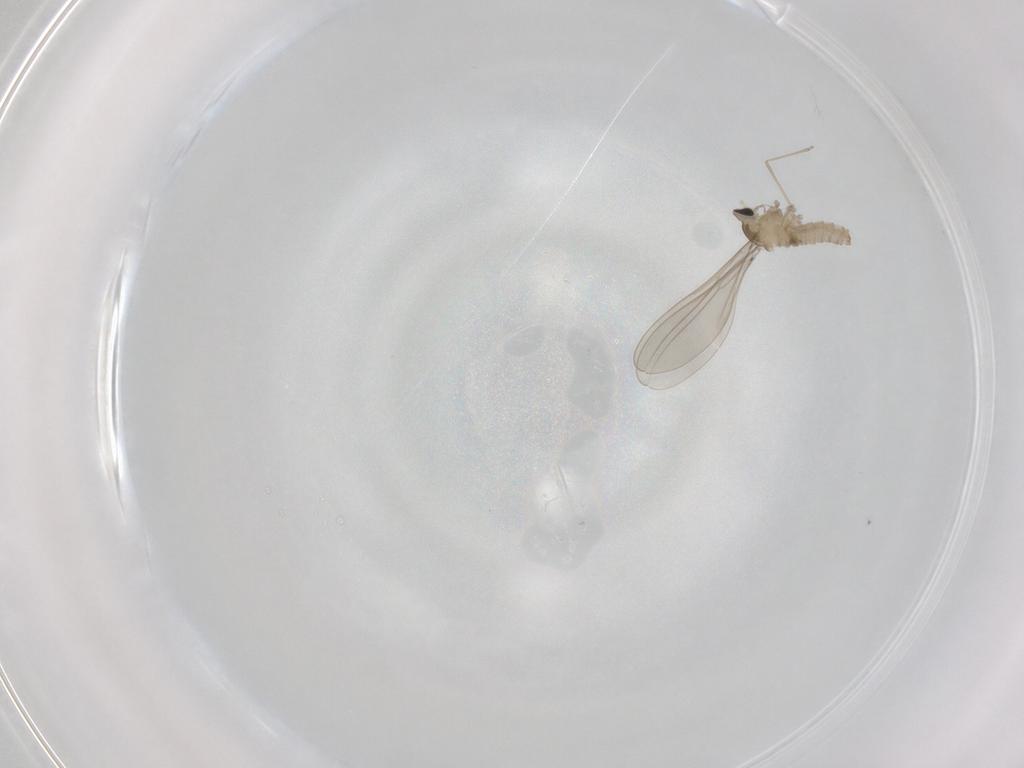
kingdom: Animalia
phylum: Arthropoda
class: Insecta
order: Diptera
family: Cecidomyiidae
